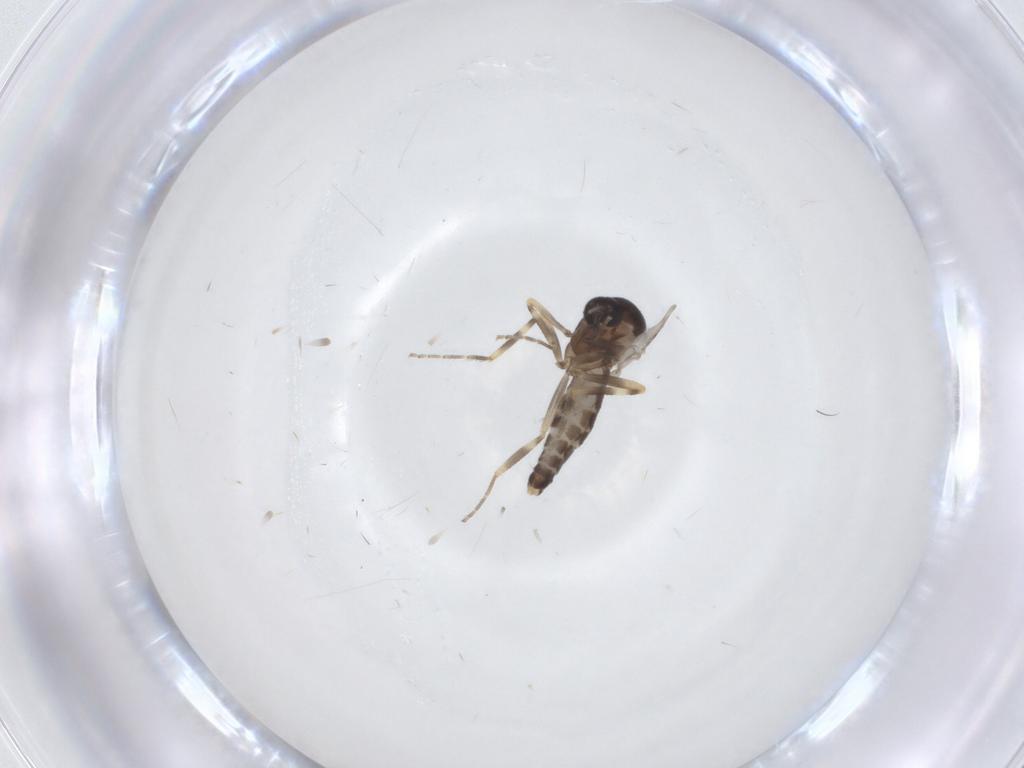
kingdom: Animalia
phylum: Arthropoda
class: Insecta
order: Diptera
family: Ceratopogonidae
